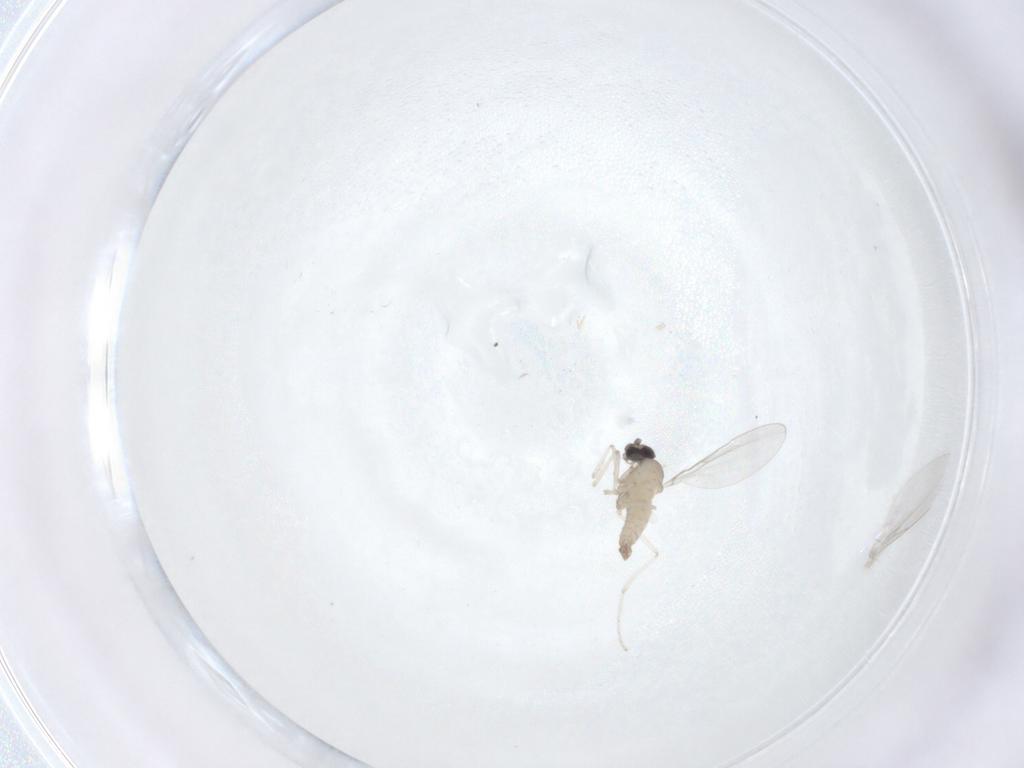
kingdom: Animalia
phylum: Arthropoda
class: Insecta
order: Diptera
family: Cecidomyiidae
